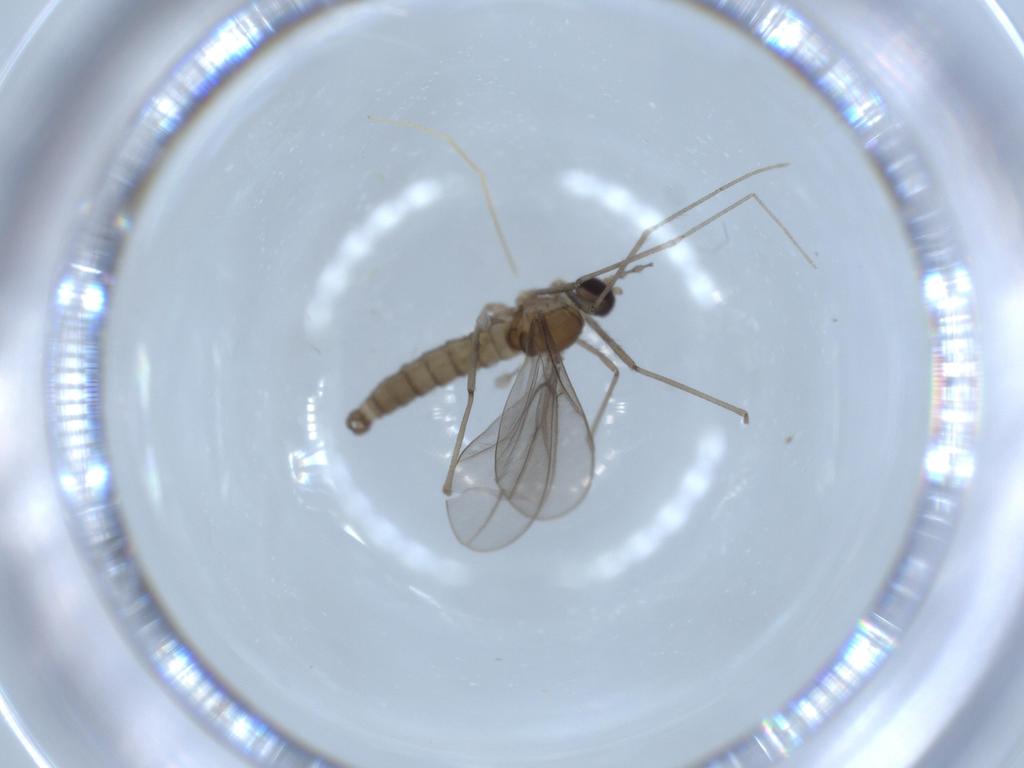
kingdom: Animalia
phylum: Arthropoda
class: Insecta
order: Diptera
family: Cecidomyiidae
